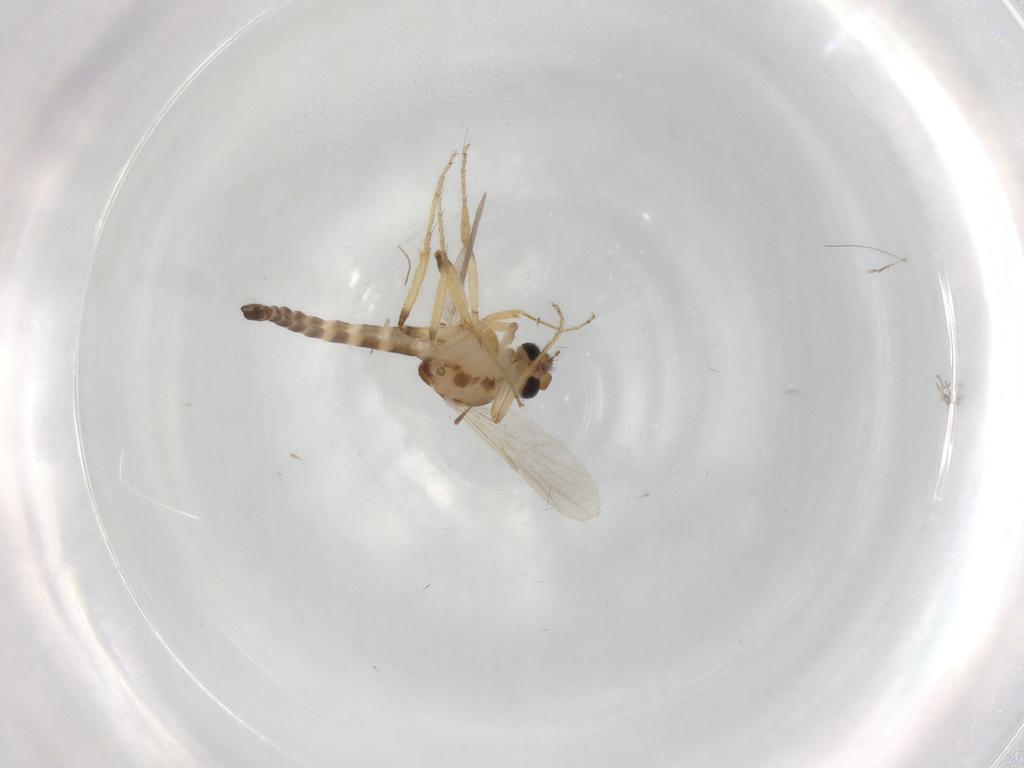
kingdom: Animalia
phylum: Arthropoda
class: Insecta
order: Diptera
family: Ceratopogonidae
